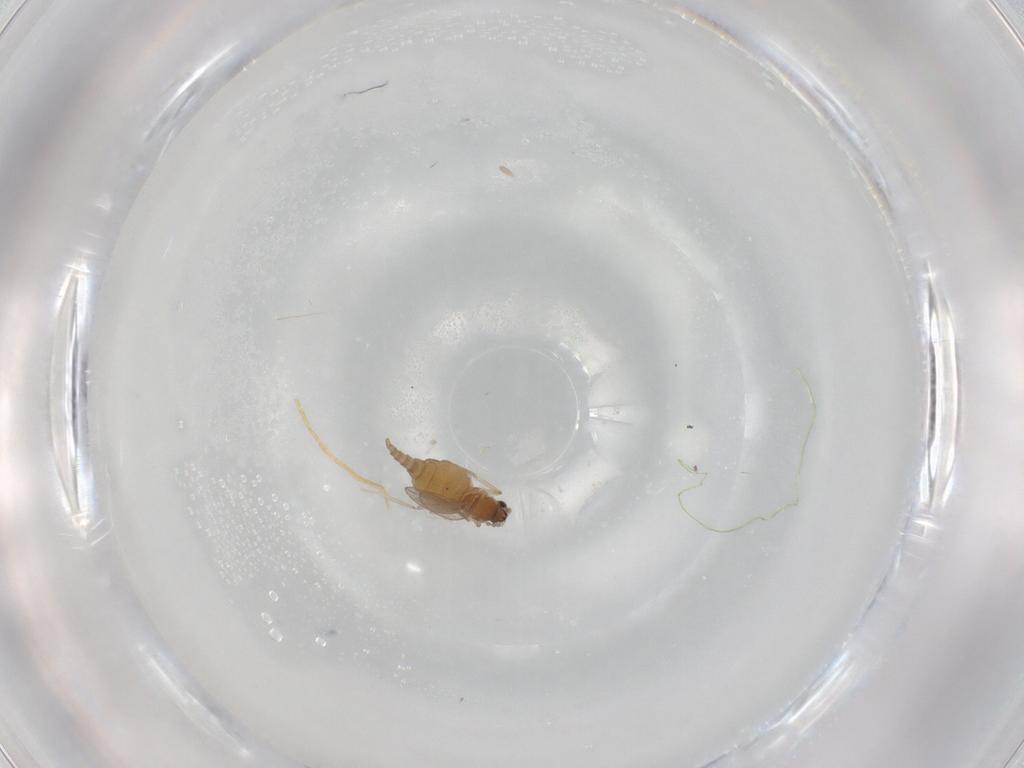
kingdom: Animalia
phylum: Arthropoda
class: Insecta
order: Diptera
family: Cecidomyiidae
